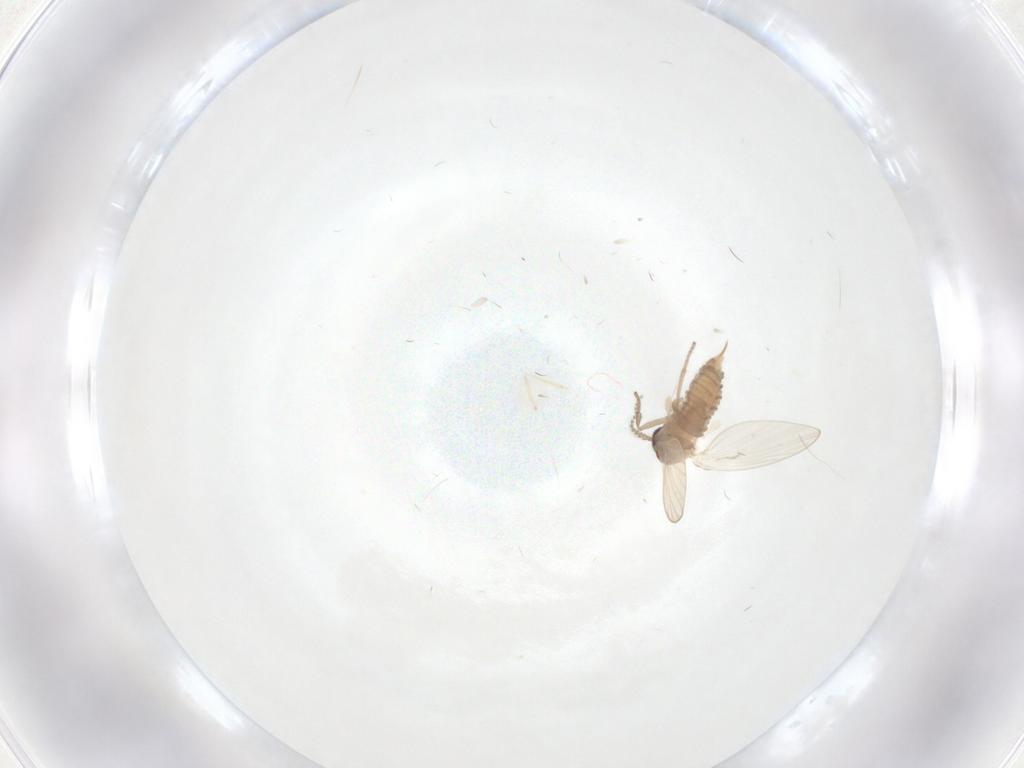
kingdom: Animalia
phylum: Arthropoda
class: Insecta
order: Diptera
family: Psychodidae
